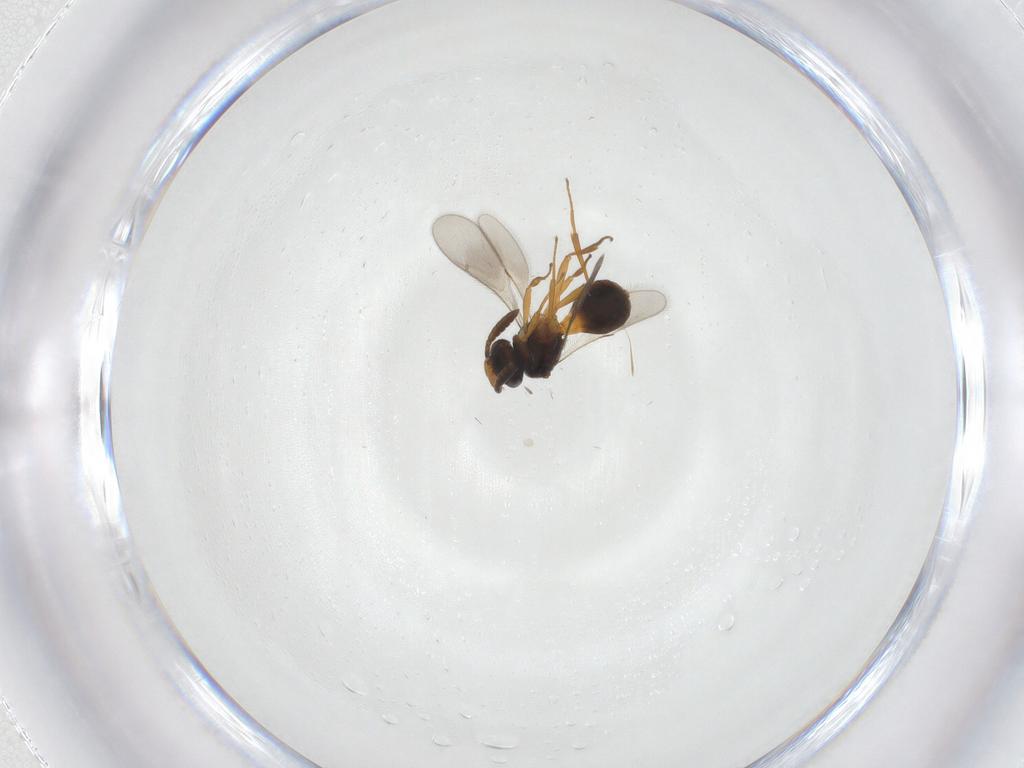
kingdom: Animalia
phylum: Arthropoda
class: Insecta
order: Hymenoptera
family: Scelionidae
